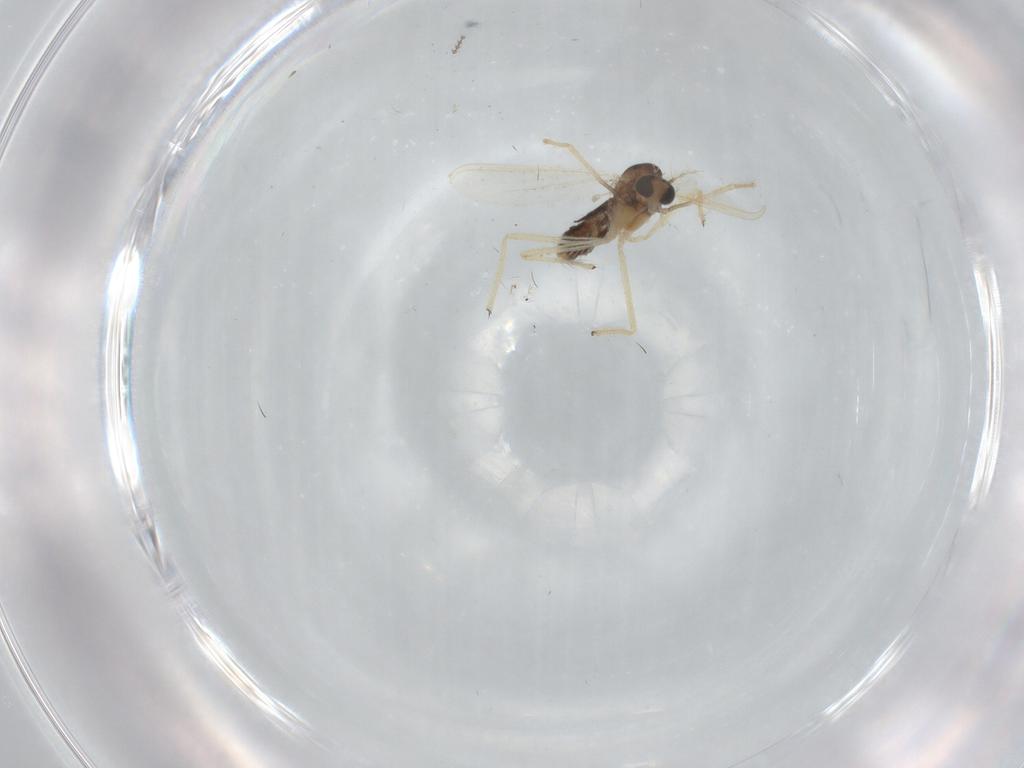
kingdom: Animalia
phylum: Arthropoda
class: Insecta
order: Diptera
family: Chironomidae
